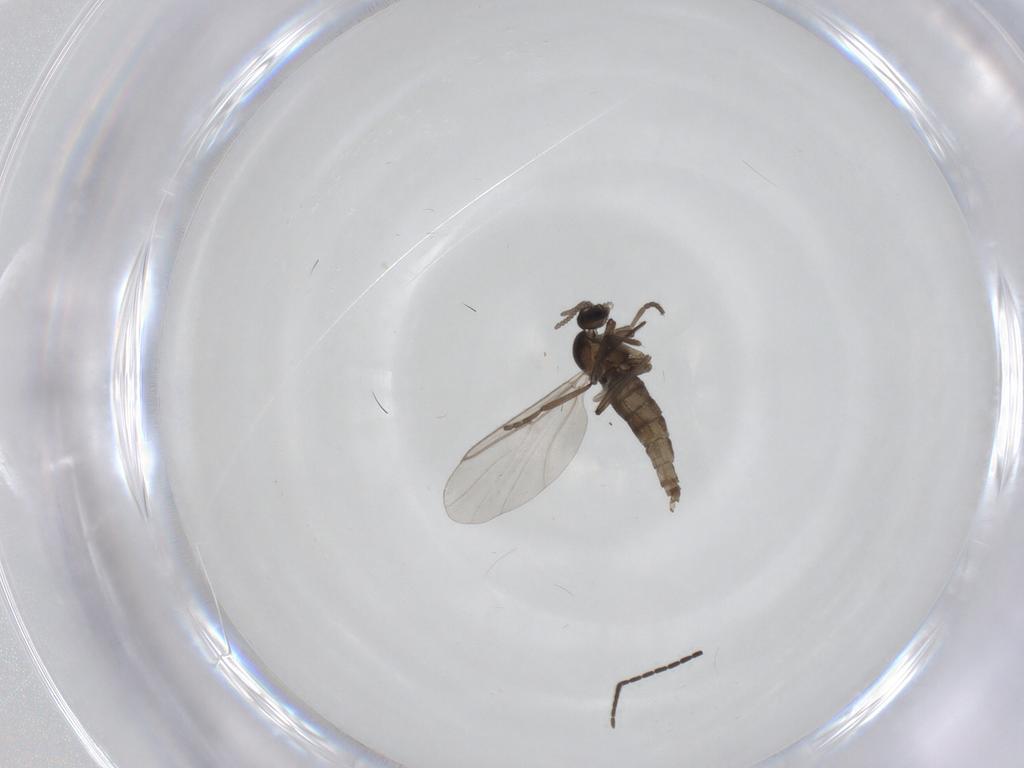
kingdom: Animalia
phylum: Arthropoda
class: Insecta
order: Diptera
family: Cecidomyiidae
